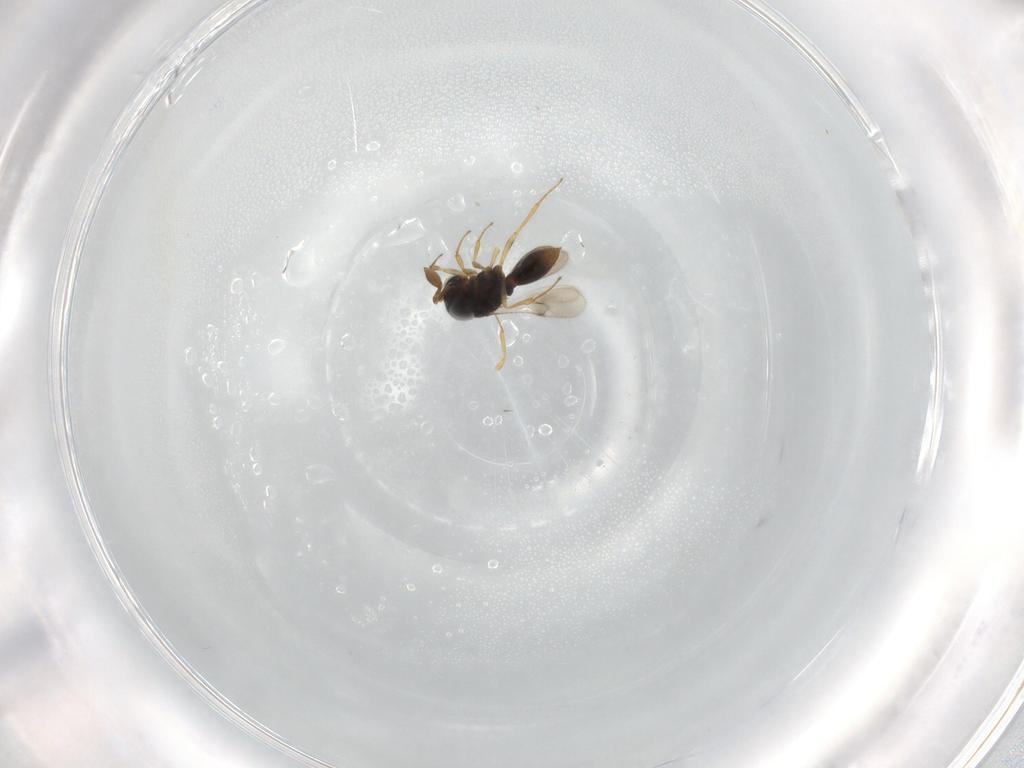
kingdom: Animalia
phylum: Arthropoda
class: Insecta
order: Hymenoptera
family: Scelionidae
